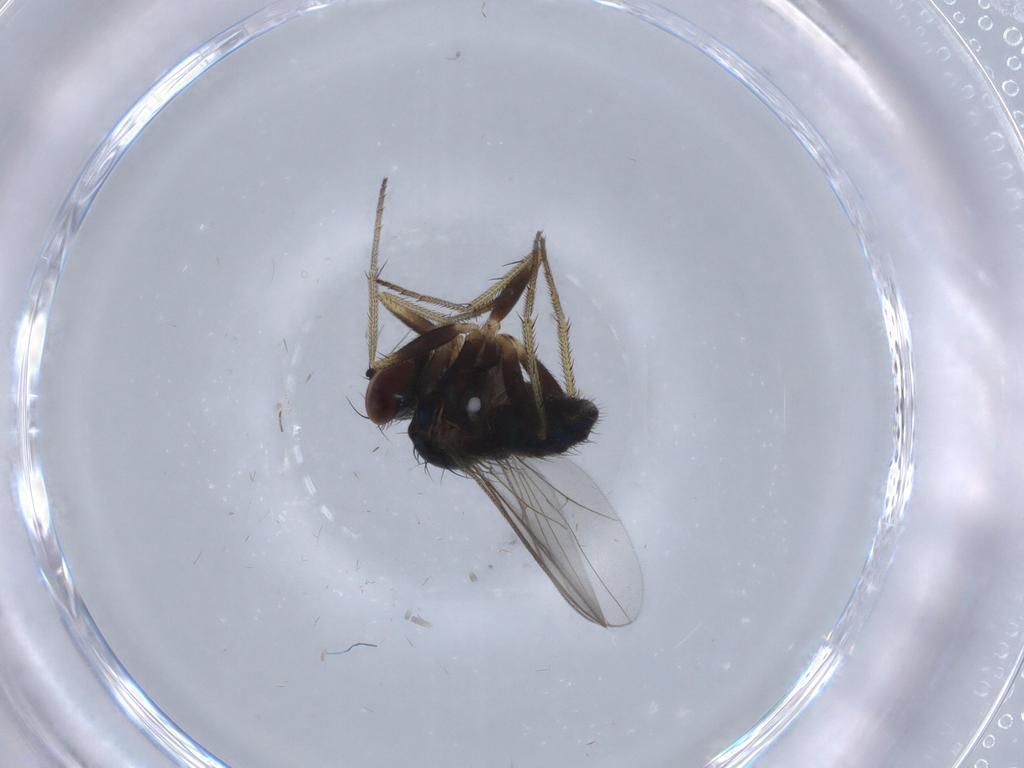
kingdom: Animalia
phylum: Arthropoda
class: Insecta
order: Diptera
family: Dolichopodidae
